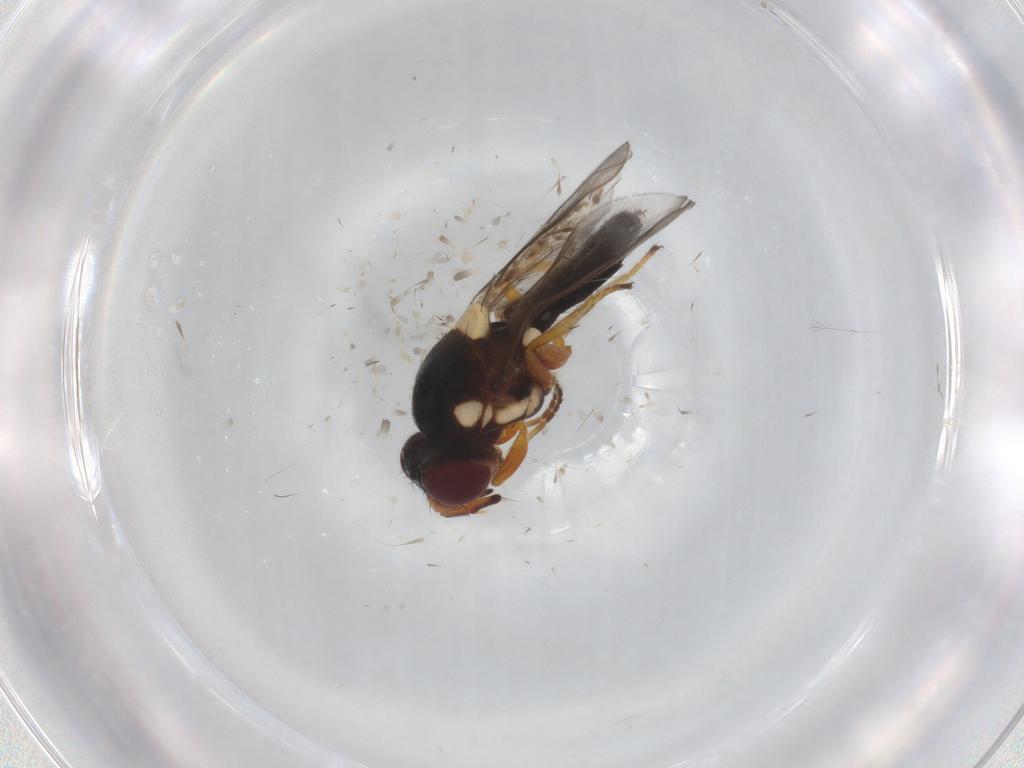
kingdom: Animalia
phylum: Arthropoda
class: Insecta
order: Diptera
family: Chloropidae
